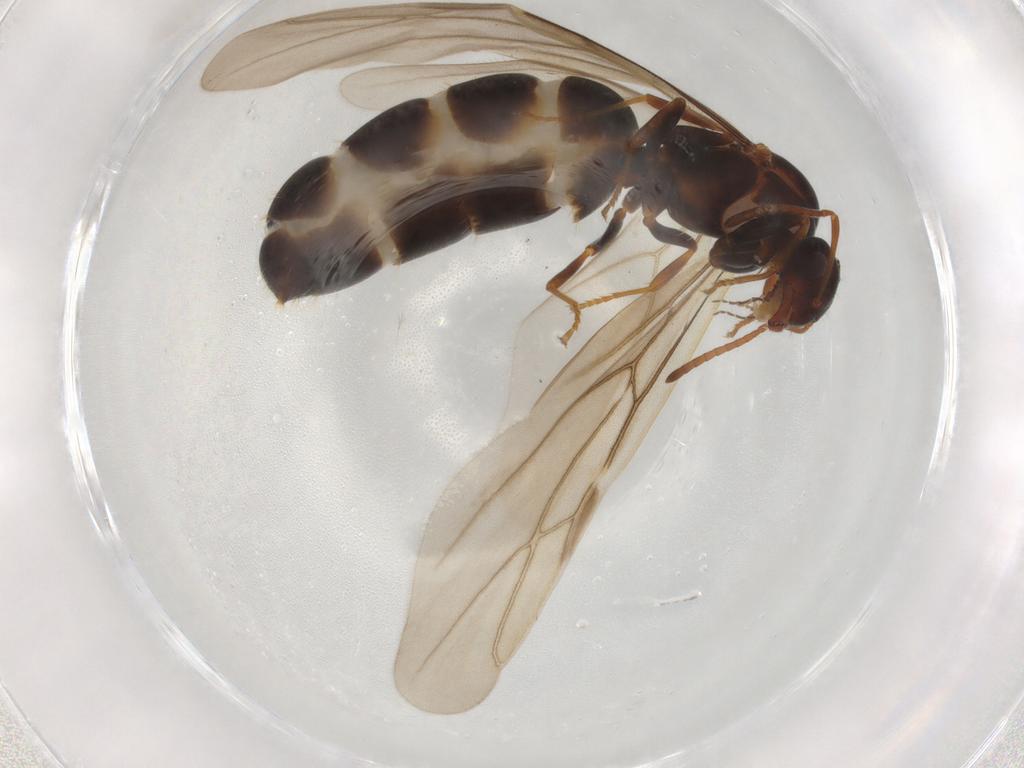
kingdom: Animalia
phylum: Arthropoda
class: Insecta
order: Hymenoptera
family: Formicidae
